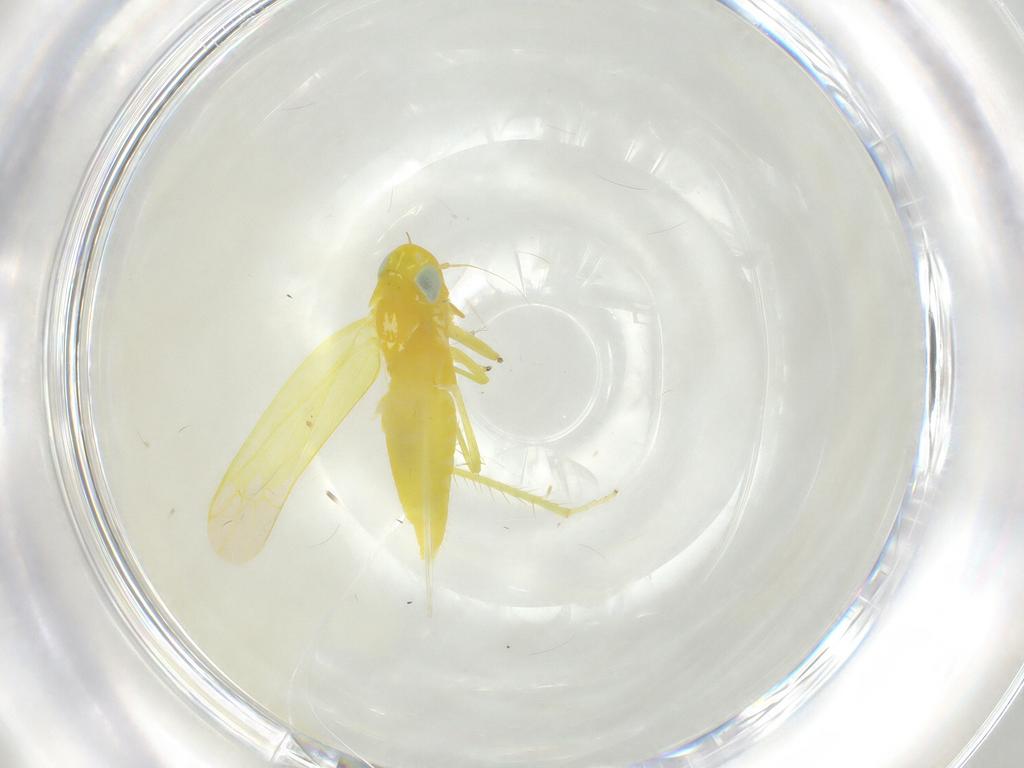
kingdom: Animalia
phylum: Arthropoda
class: Insecta
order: Hemiptera
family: Cicadellidae
